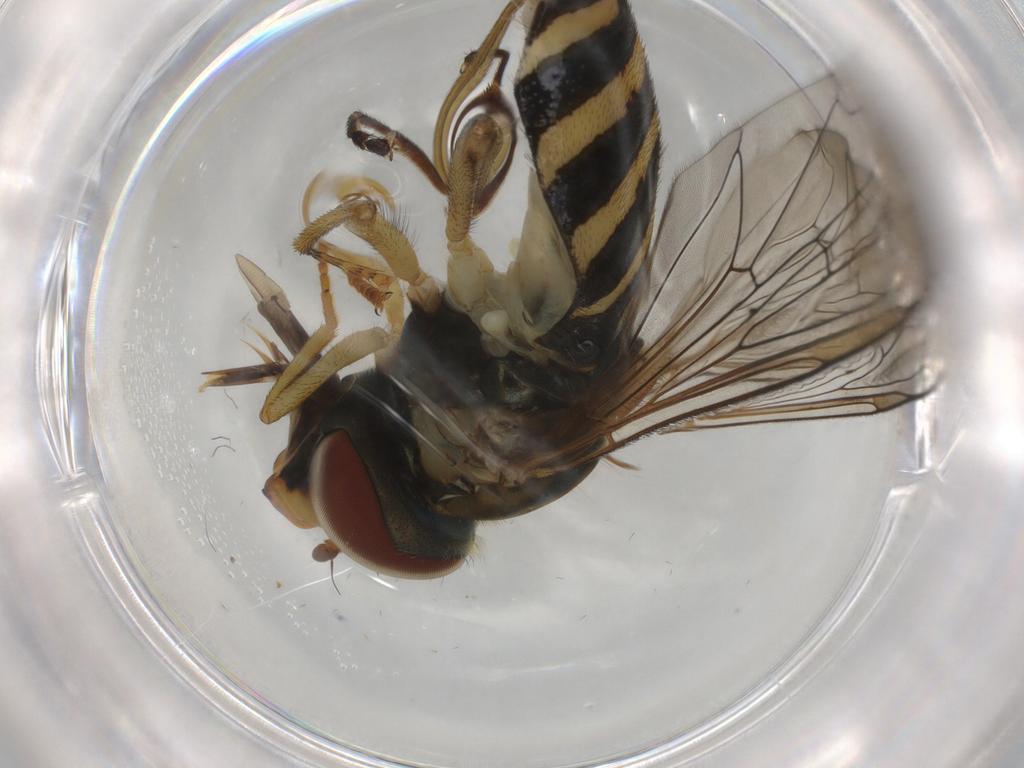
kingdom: Animalia
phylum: Arthropoda
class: Insecta
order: Diptera
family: Syrphidae
